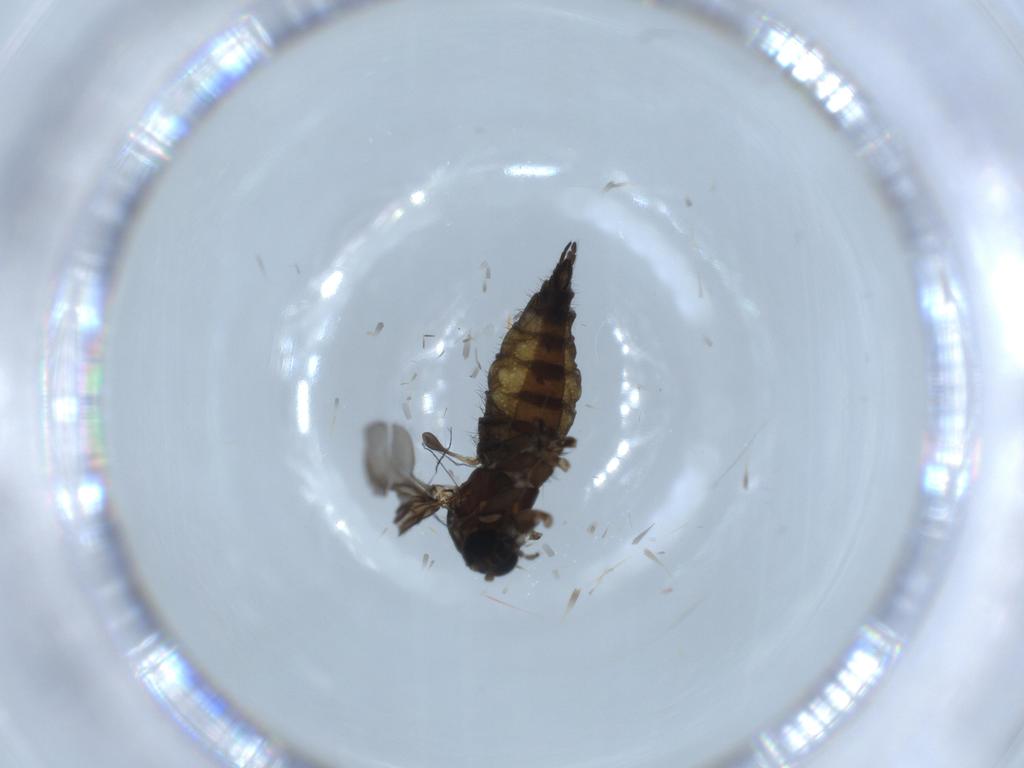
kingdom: Animalia
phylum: Arthropoda
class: Insecta
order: Diptera
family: Sciaridae
